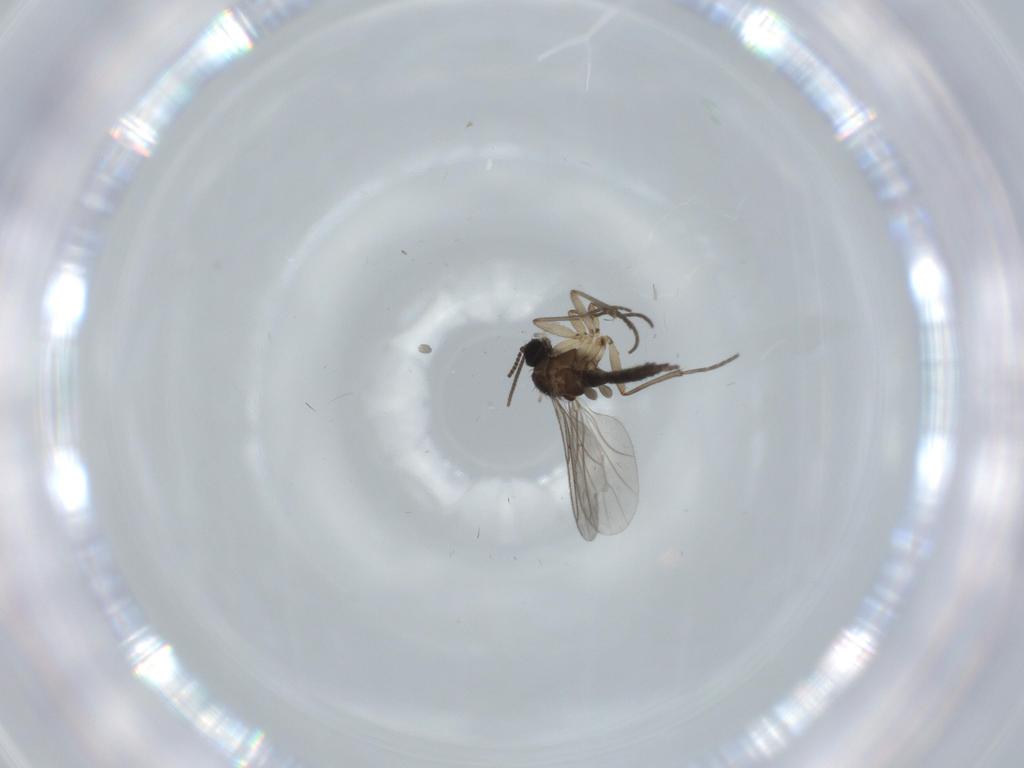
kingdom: Animalia
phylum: Arthropoda
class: Insecta
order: Diptera
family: Sciaridae
